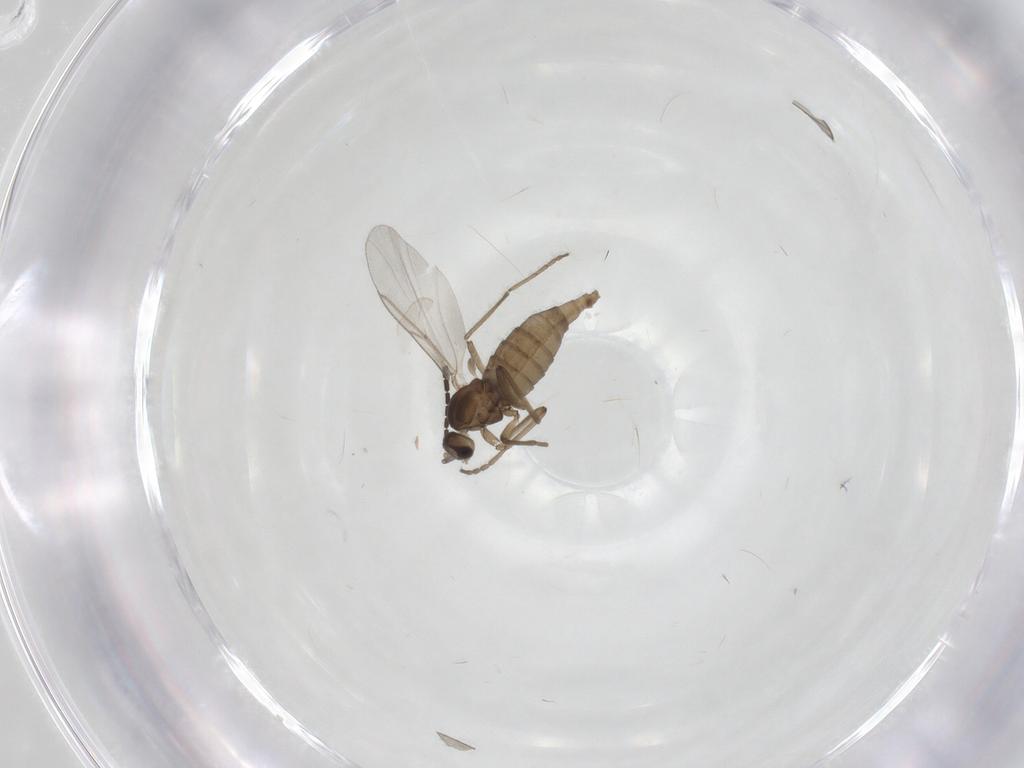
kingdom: Animalia
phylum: Arthropoda
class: Insecta
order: Diptera
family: Cecidomyiidae
